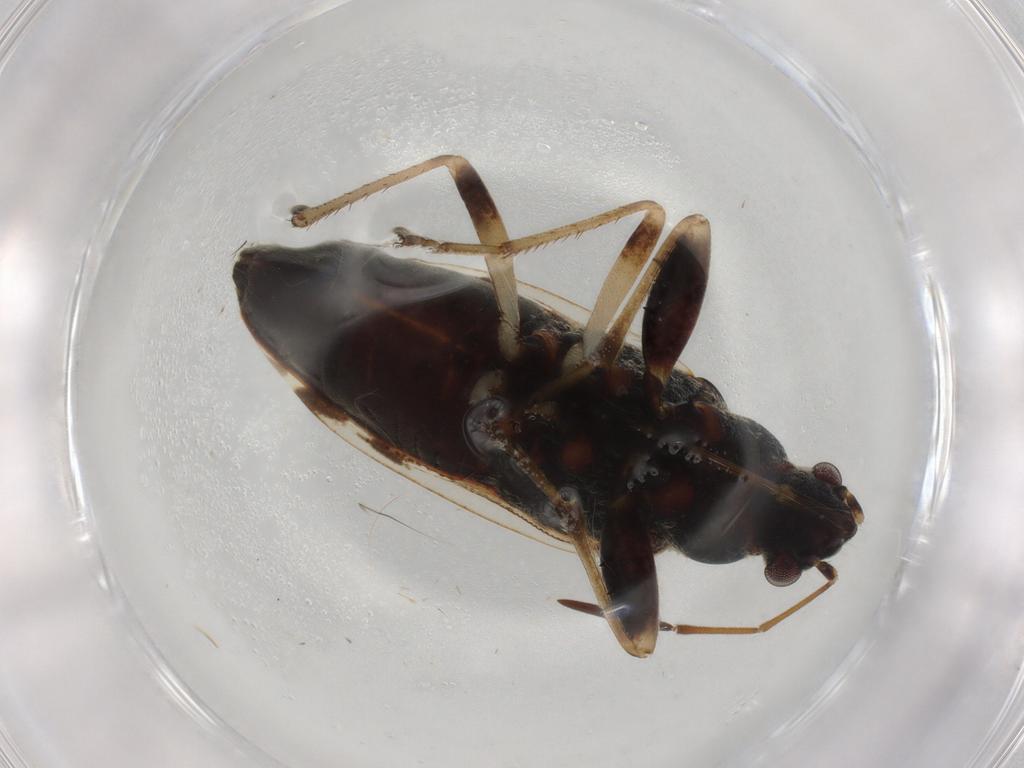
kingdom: Animalia
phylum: Arthropoda
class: Insecta
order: Hemiptera
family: Rhyparochromidae
